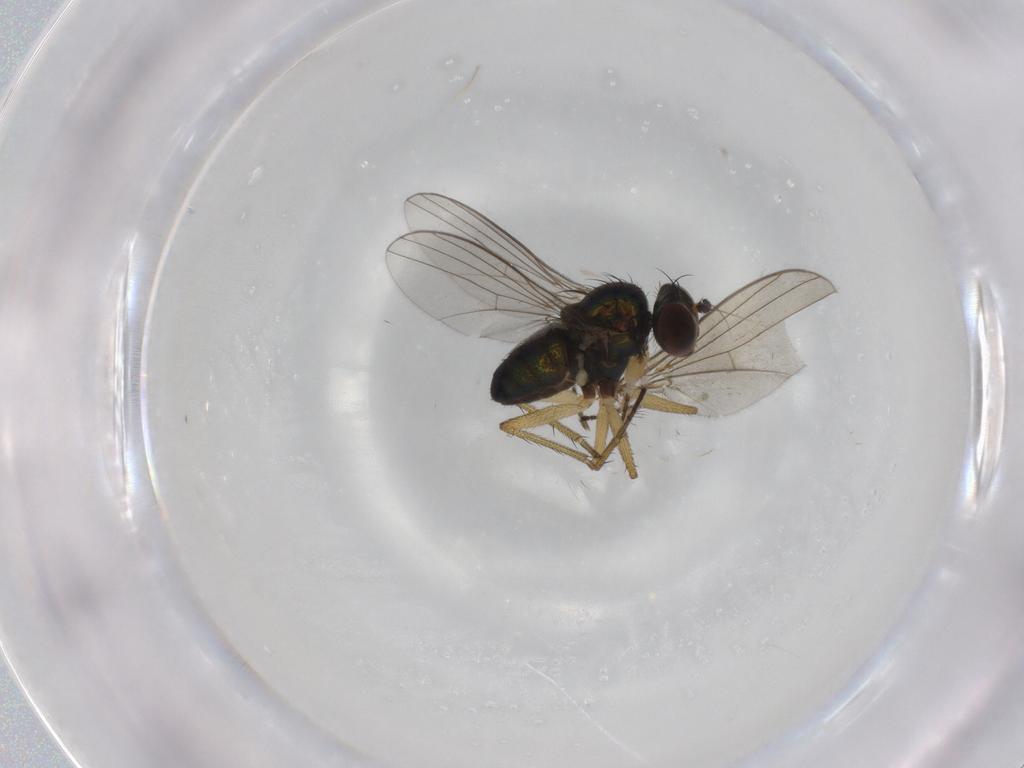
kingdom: Animalia
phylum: Arthropoda
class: Insecta
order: Diptera
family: Dolichopodidae
